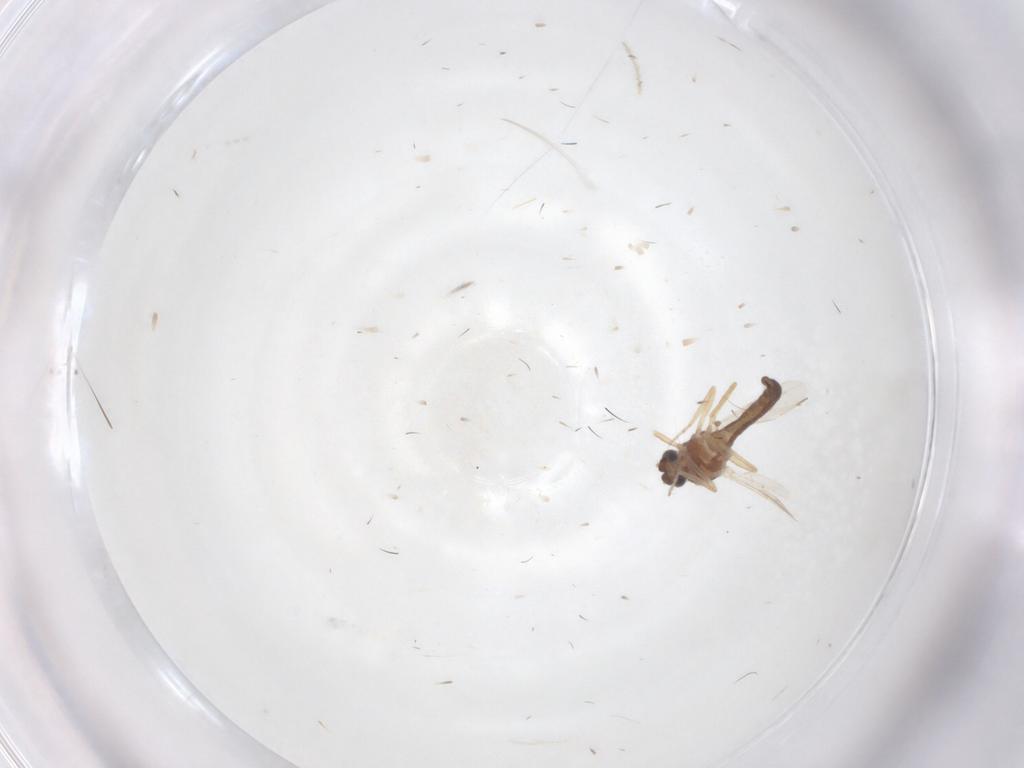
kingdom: Animalia
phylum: Arthropoda
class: Insecta
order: Diptera
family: Ceratopogonidae
